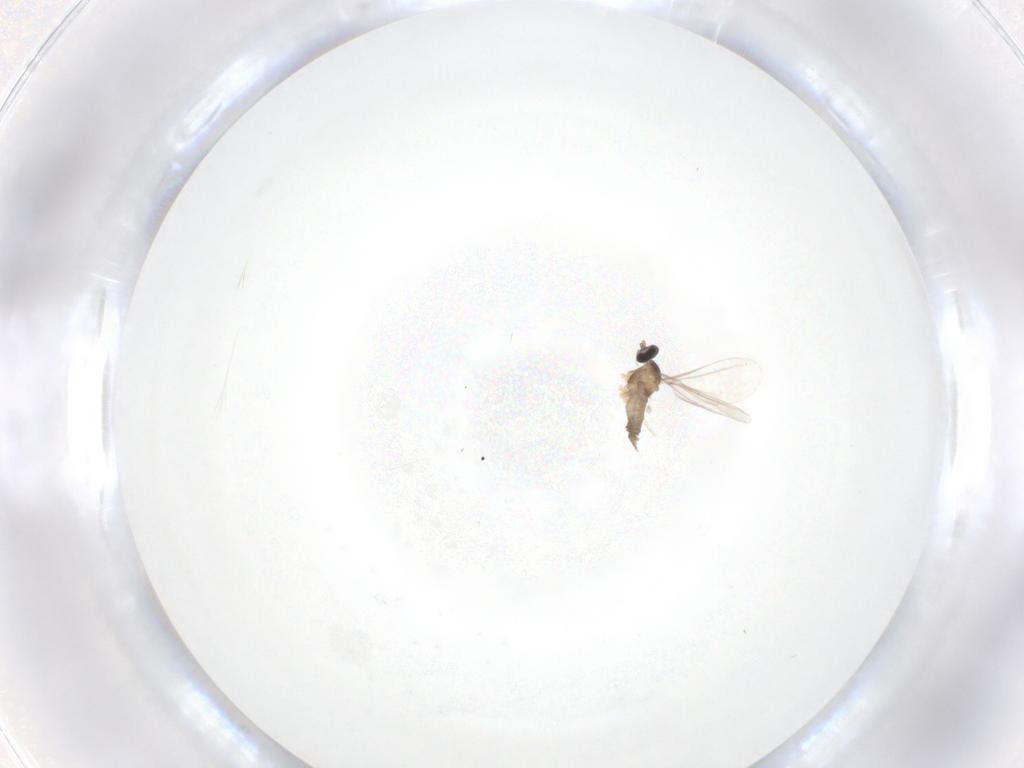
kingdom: Animalia
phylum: Arthropoda
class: Insecta
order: Diptera
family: Cecidomyiidae
